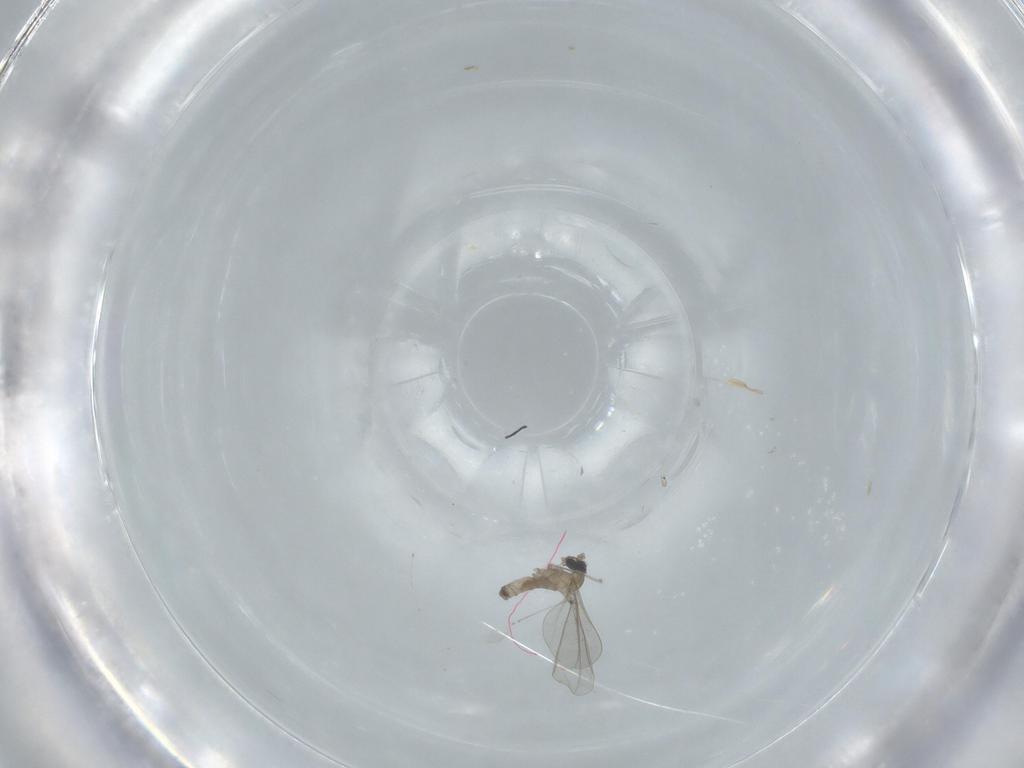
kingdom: Animalia
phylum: Arthropoda
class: Insecta
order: Diptera
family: Cecidomyiidae
